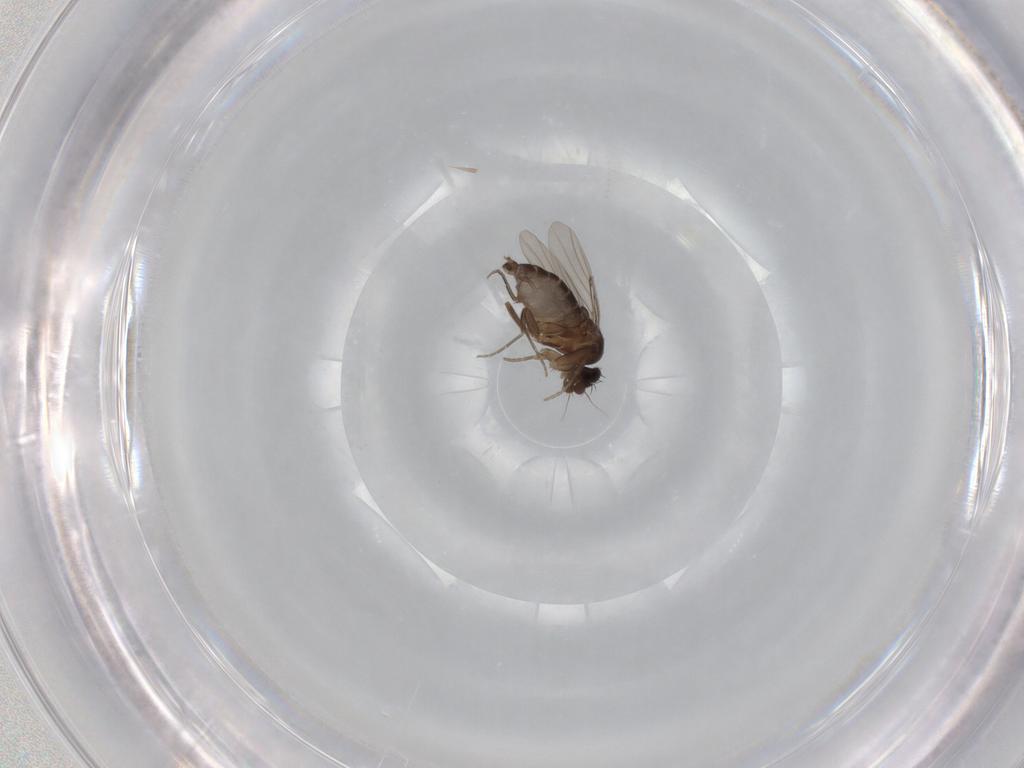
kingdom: Animalia
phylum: Arthropoda
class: Insecta
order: Diptera
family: Phoridae
